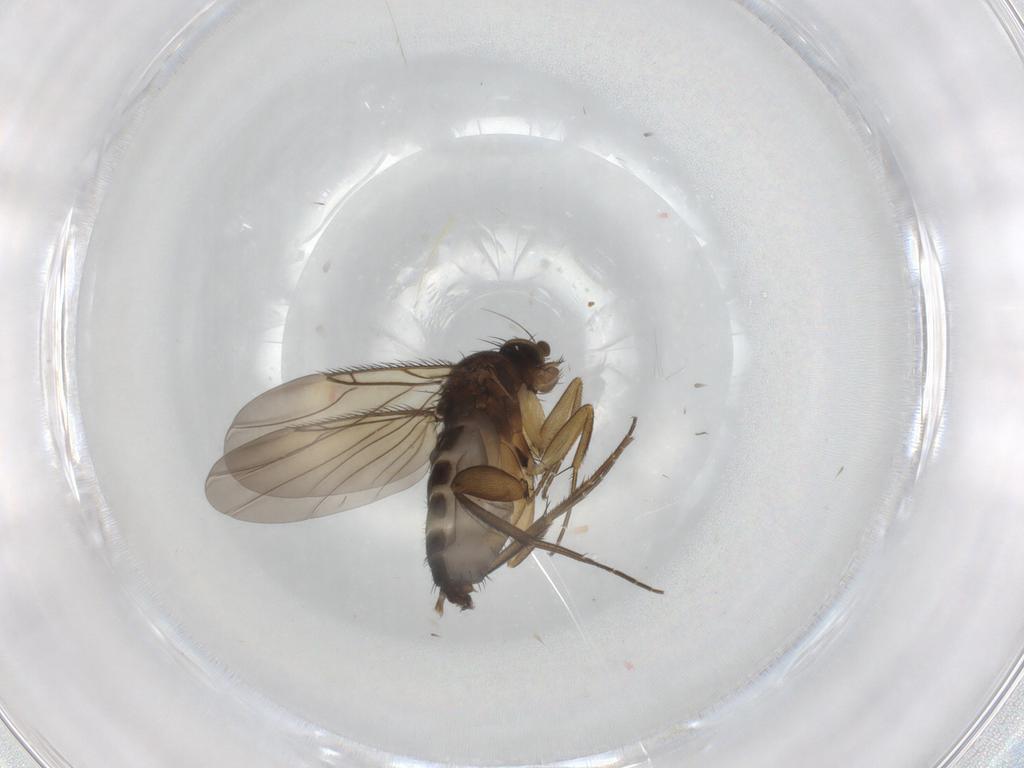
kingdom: Animalia
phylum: Arthropoda
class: Insecta
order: Diptera
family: Phoridae
